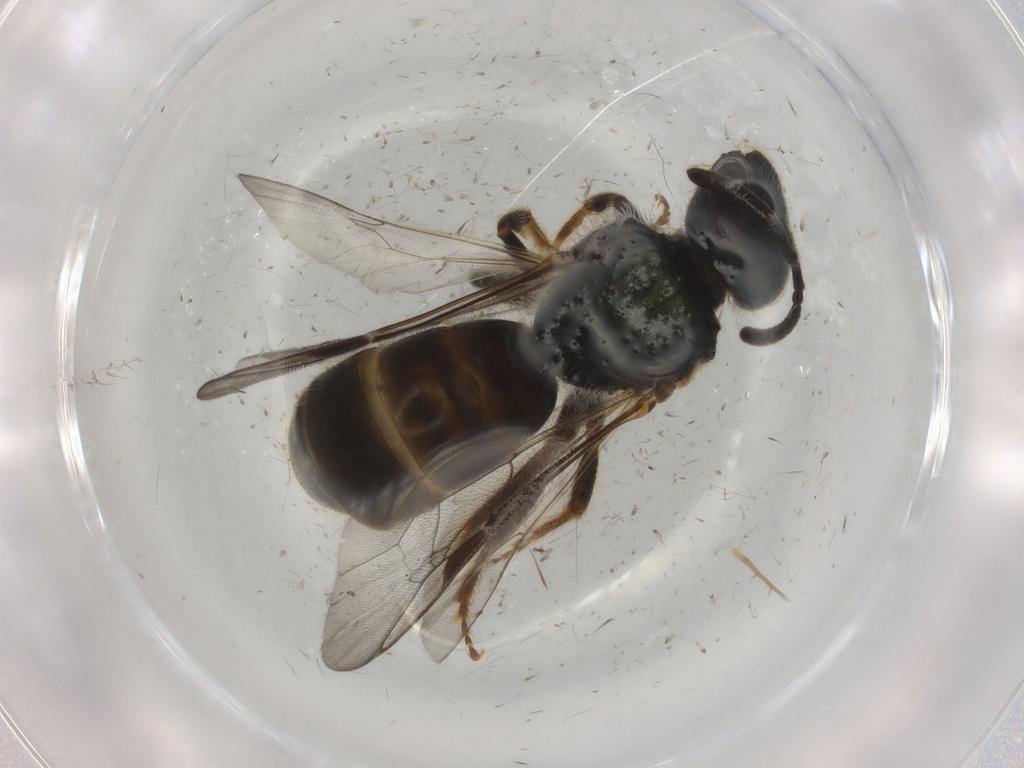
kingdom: Animalia
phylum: Arthropoda
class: Insecta
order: Hymenoptera
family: Halictidae
